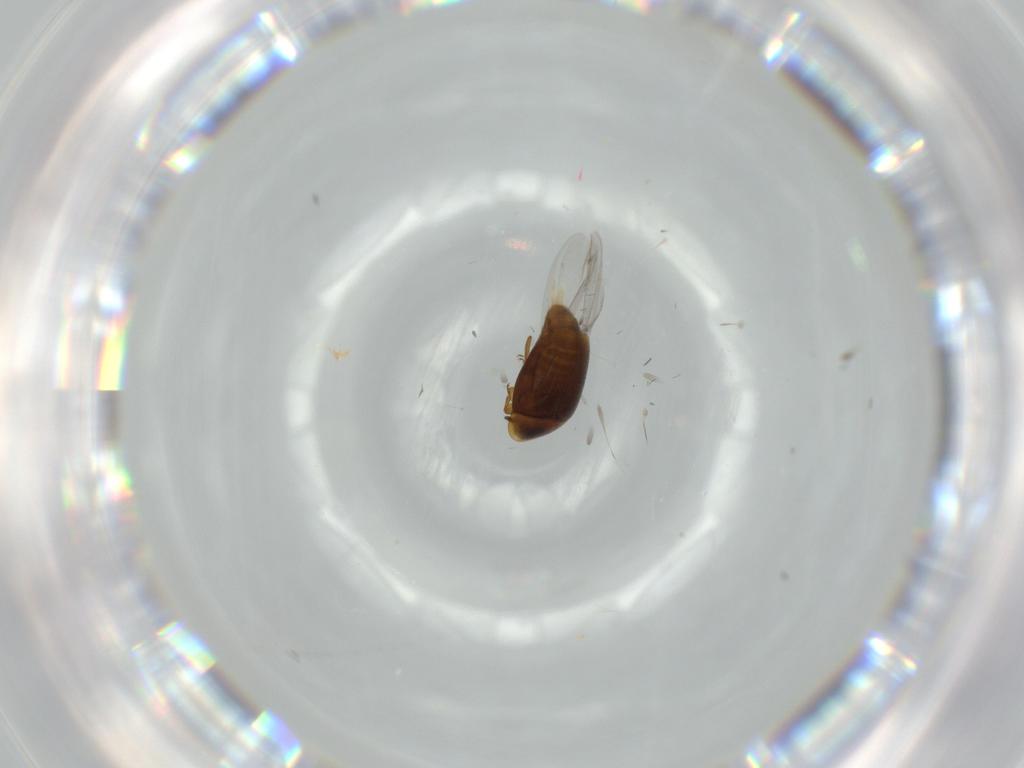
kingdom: Animalia
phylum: Arthropoda
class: Insecta
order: Coleoptera
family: Corylophidae
